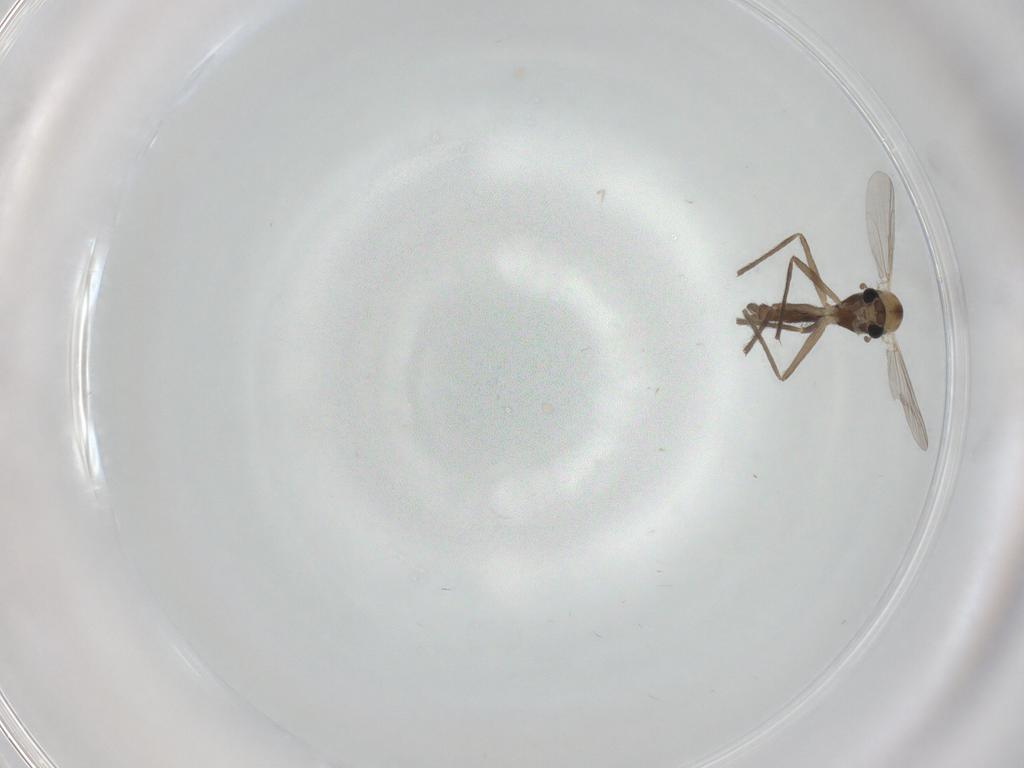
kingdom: Animalia
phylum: Arthropoda
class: Insecta
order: Diptera
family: Chironomidae
